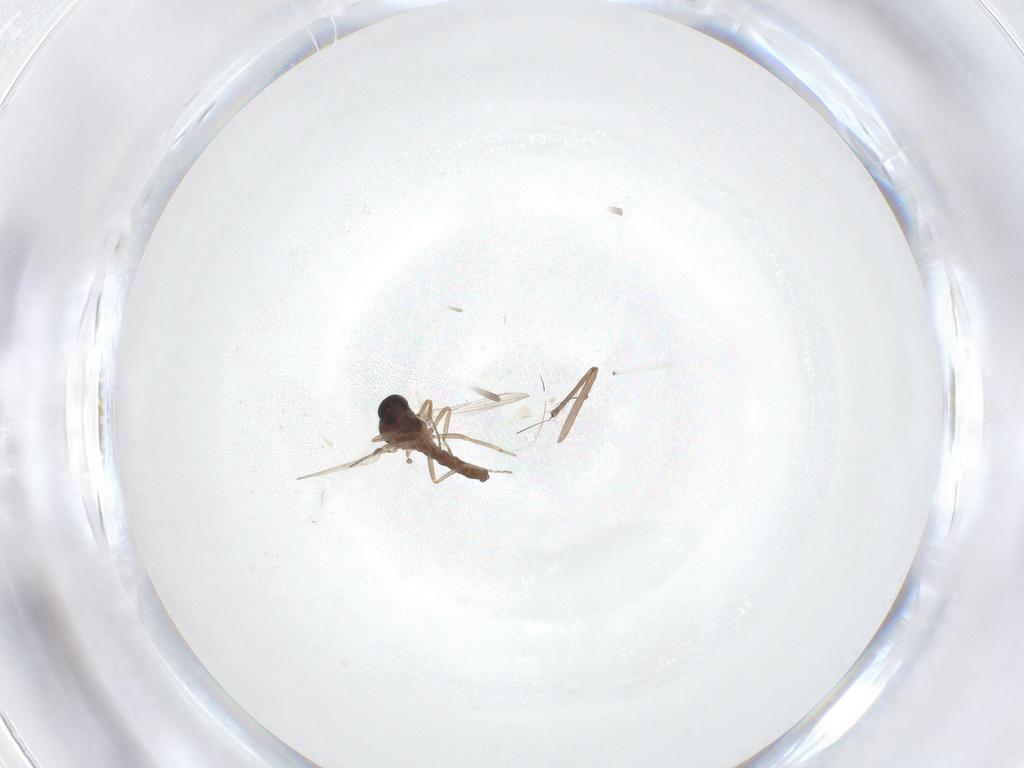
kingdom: Animalia
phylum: Arthropoda
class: Insecta
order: Diptera
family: Ceratopogonidae
